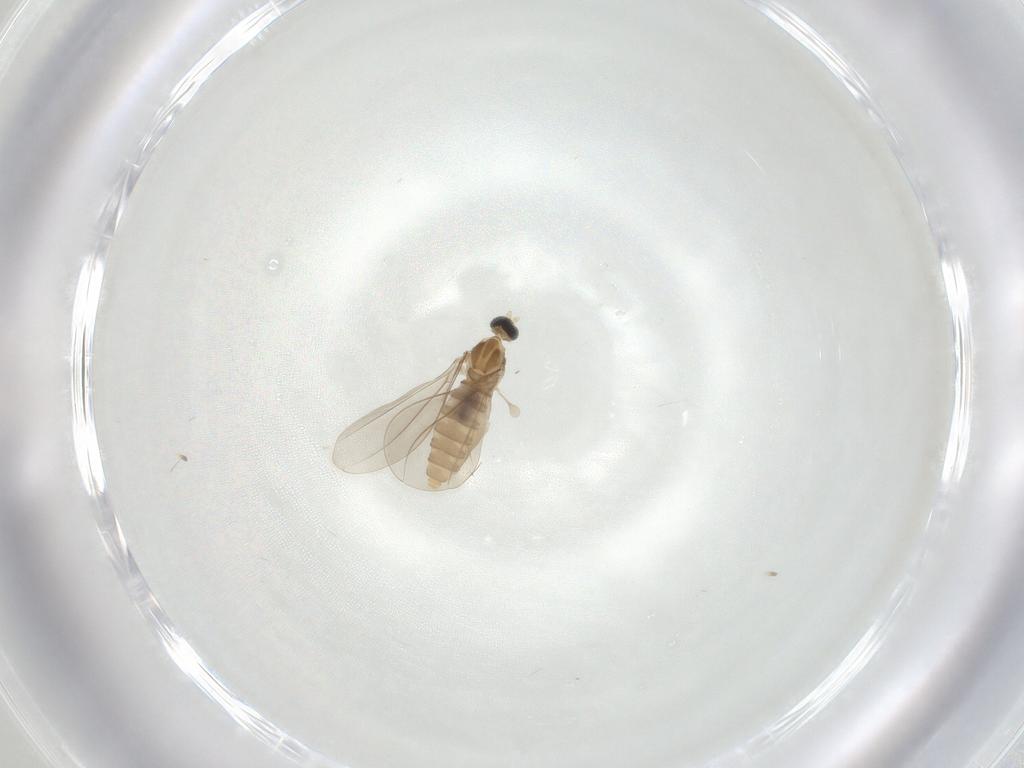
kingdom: Animalia
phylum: Arthropoda
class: Insecta
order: Diptera
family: Cecidomyiidae
